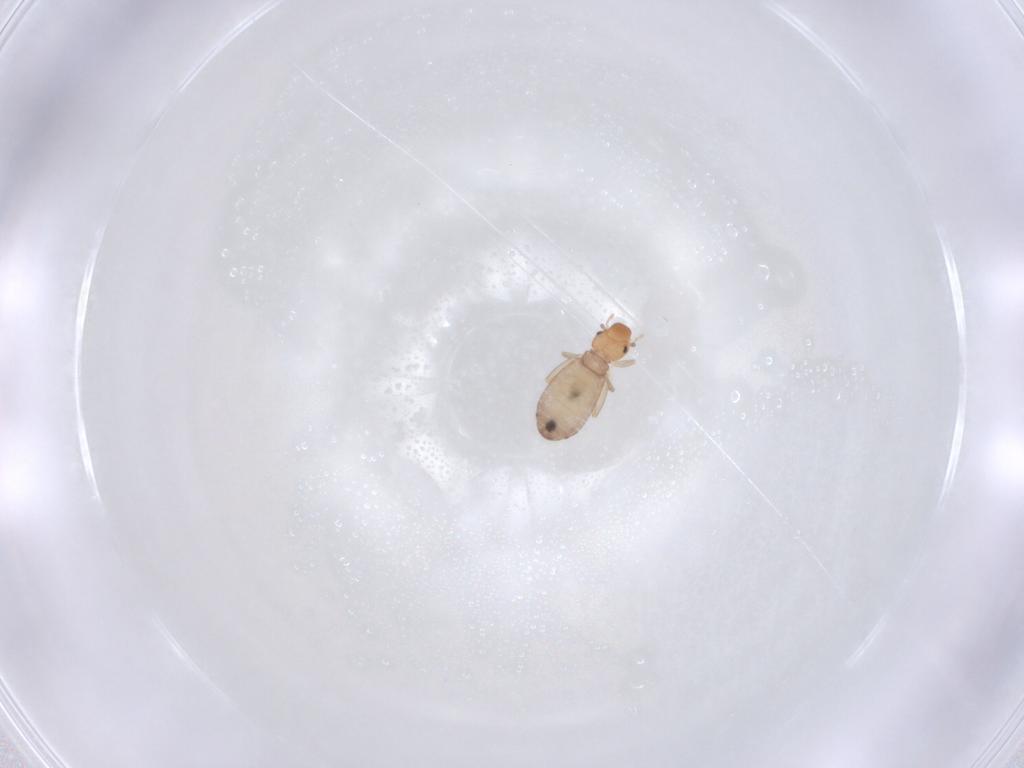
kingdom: Animalia
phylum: Arthropoda
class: Insecta
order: Psocodea
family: Liposcelididae
